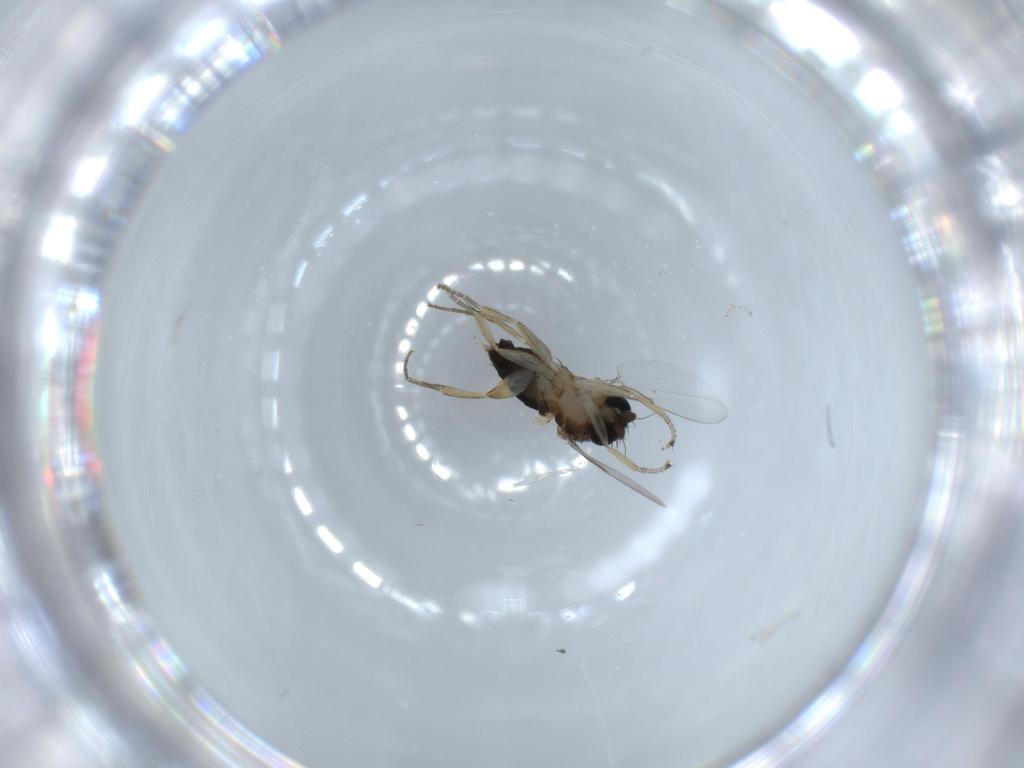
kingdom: Animalia
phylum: Arthropoda
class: Insecta
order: Diptera
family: Phoridae
